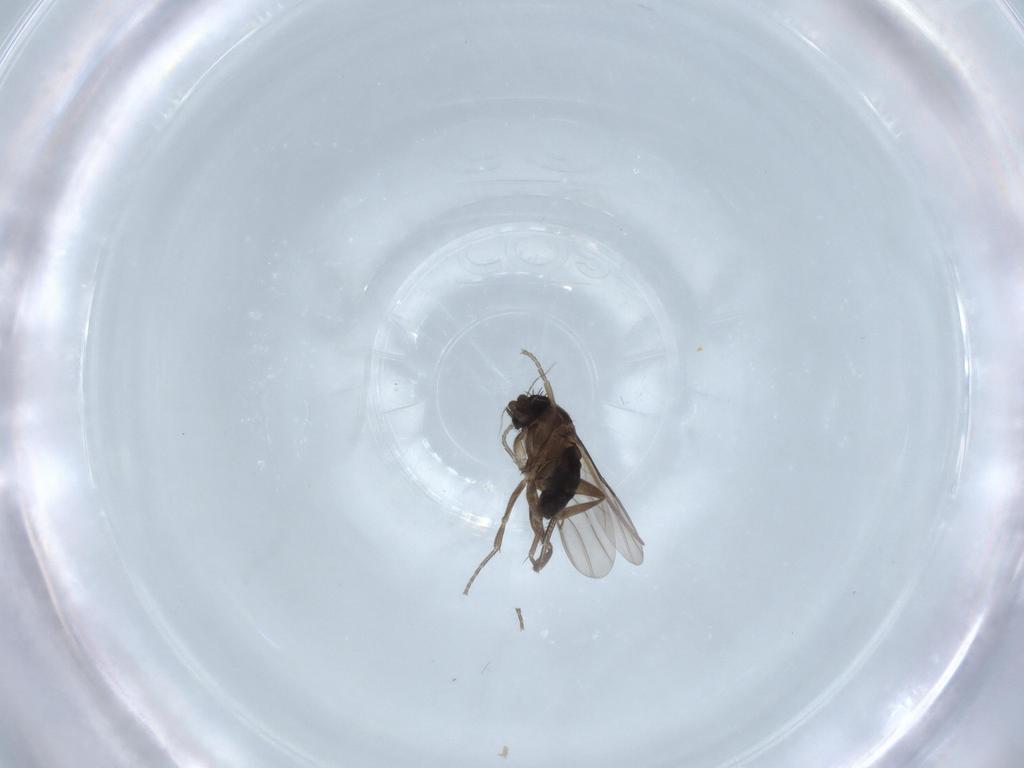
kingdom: Animalia
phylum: Arthropoda
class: Insecta
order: Diptera
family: Phoridae
